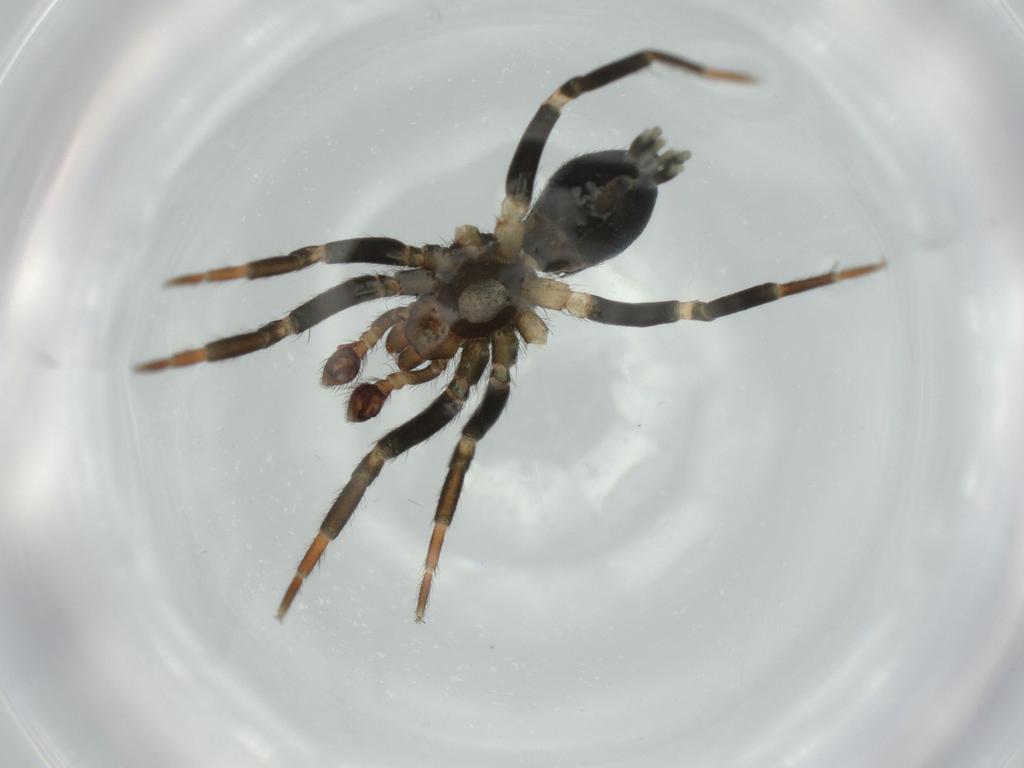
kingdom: Animalia
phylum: Arthropoda
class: Arachnida
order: Araneae
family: Gnaphosidae
